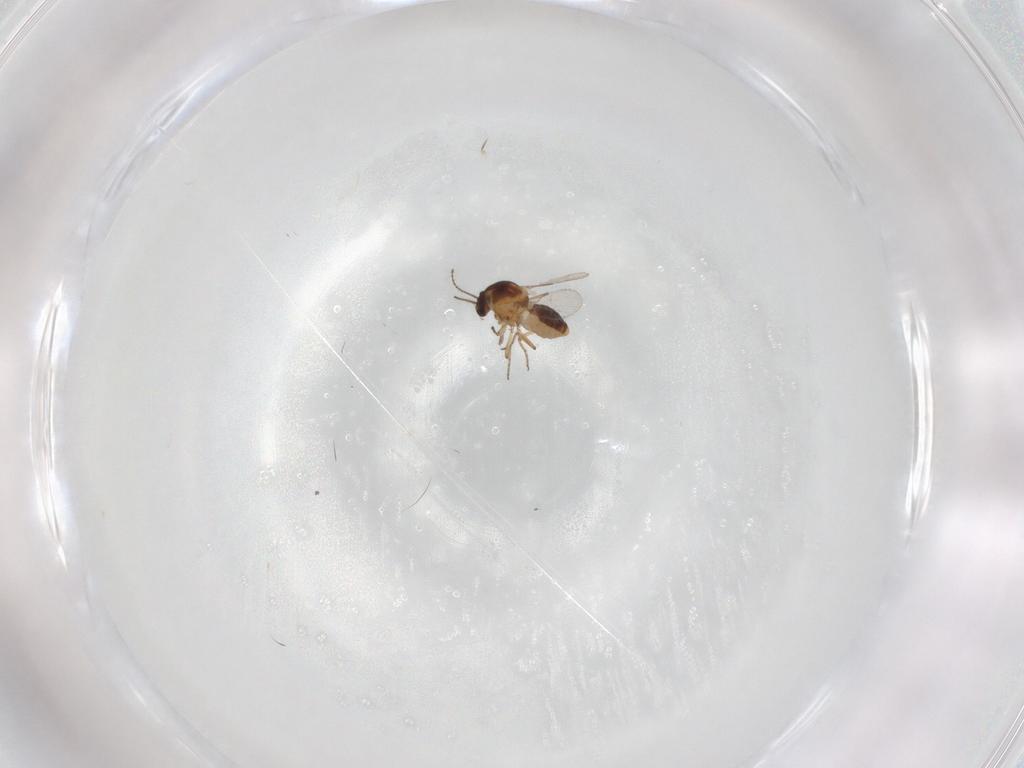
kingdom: Animalia
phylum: Arthropoda
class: Insecta
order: Diptera
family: Ceratopogonidae
